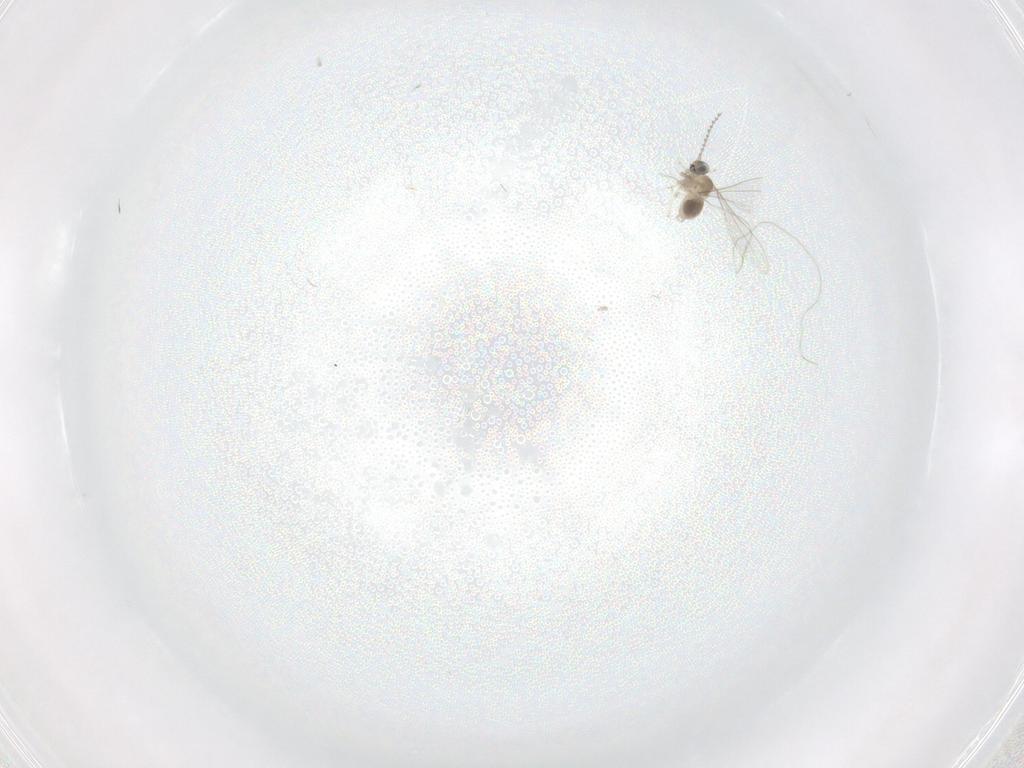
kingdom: Animalia
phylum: Arthropoda
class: Insecta
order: Diptera
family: Cecidomyiidae
